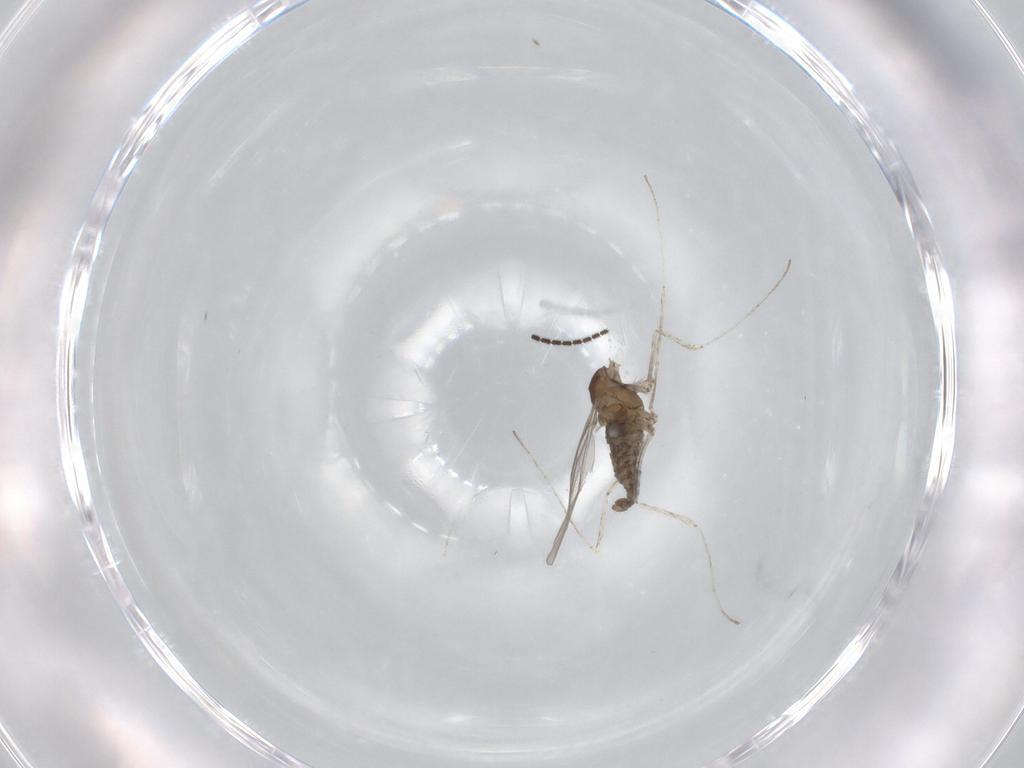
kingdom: Animalia
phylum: Arthropoda
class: Insecta
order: Diptera
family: Cecidomyiidae
